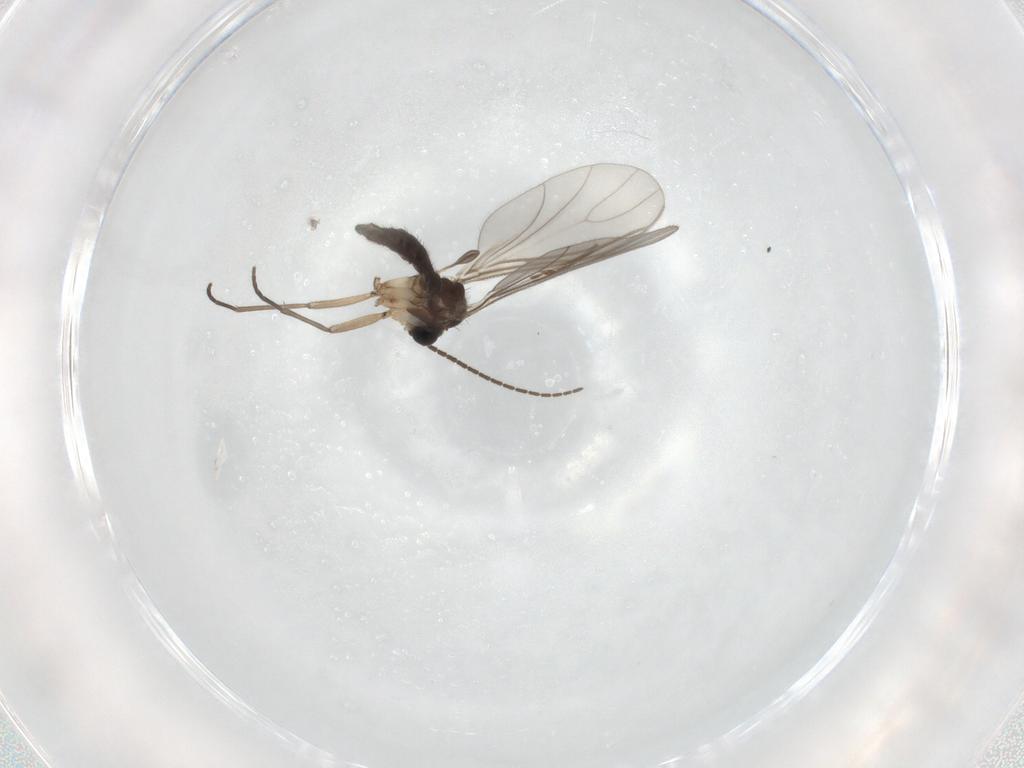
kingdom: Animalia
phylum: Arthropoda
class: Insecta
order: Diptera
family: Sciaridae
